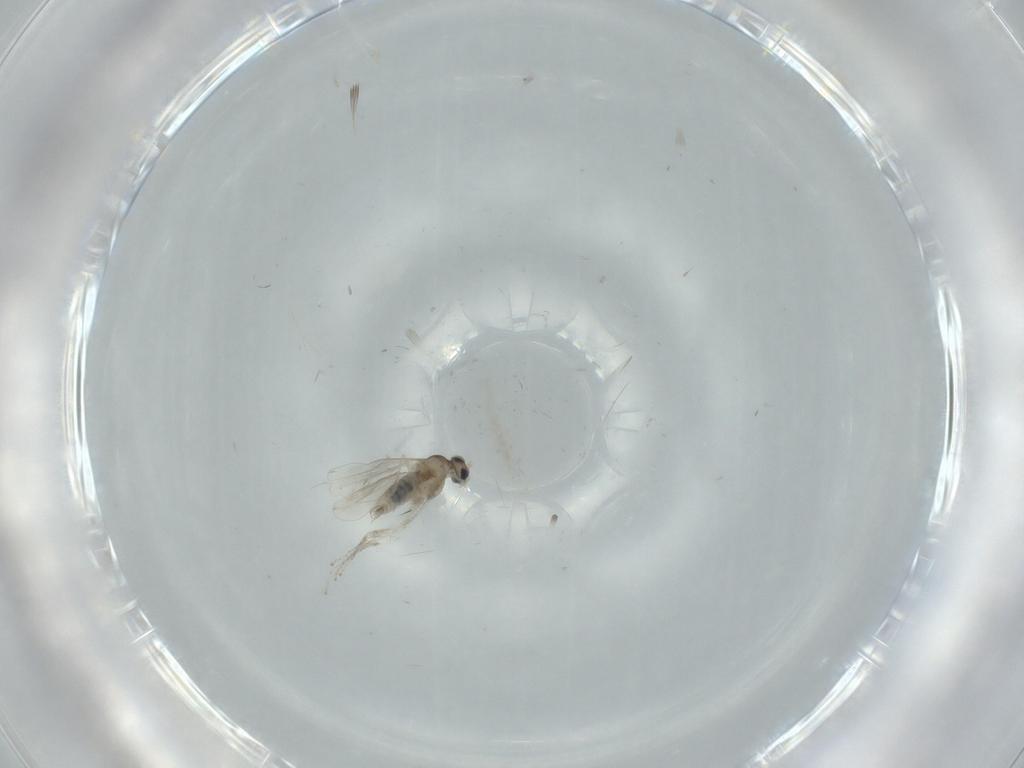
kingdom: Animalia
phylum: Arthropoda
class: Insecta
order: Diptera
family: Cecidomyiidae
